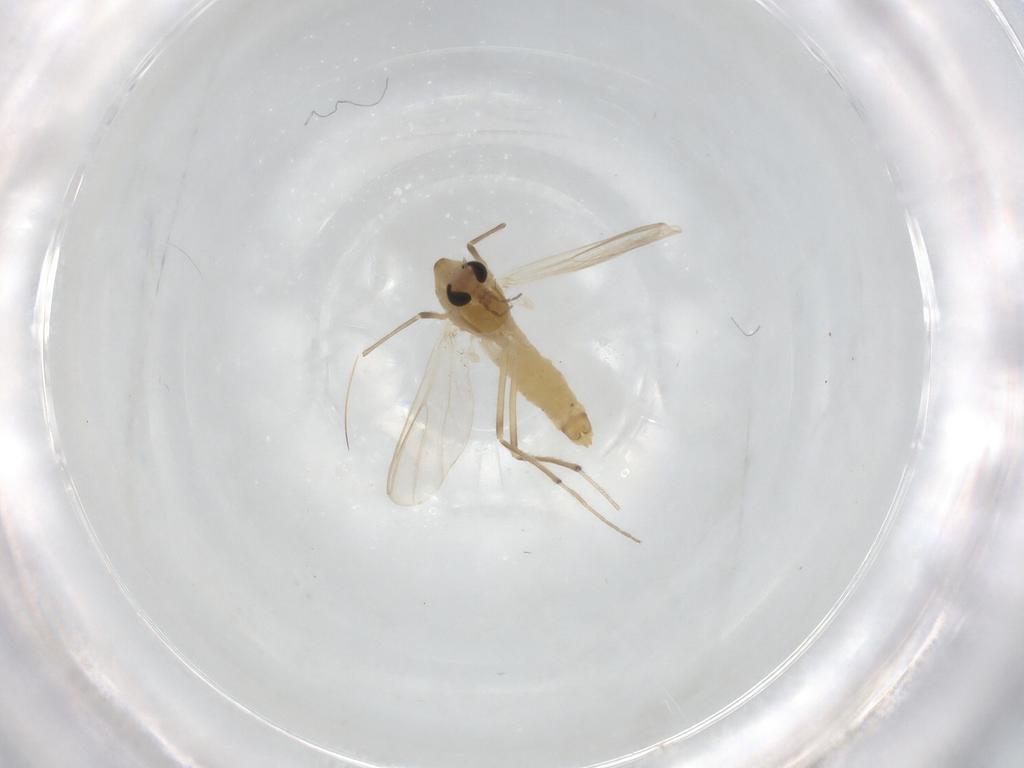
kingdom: Animalia
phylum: Arthropoda
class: Insecta
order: Diptera
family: Chironomidae
